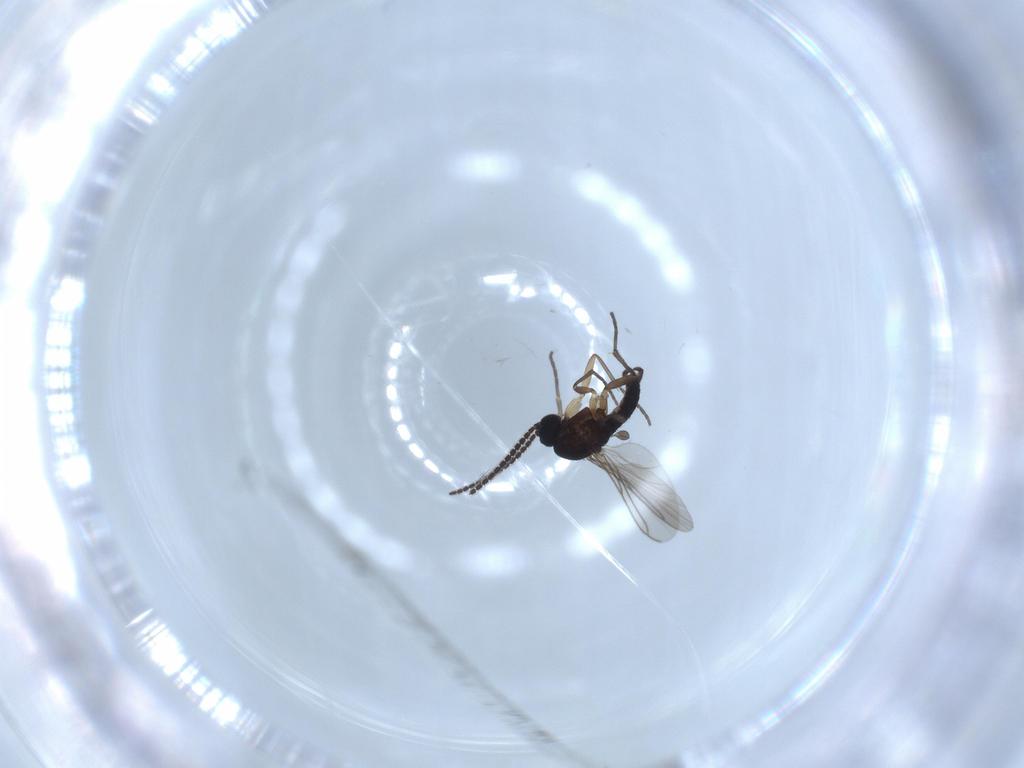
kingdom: Animalia
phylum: Arthropoda
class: Insecta
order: Diptera
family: Sciaridae
